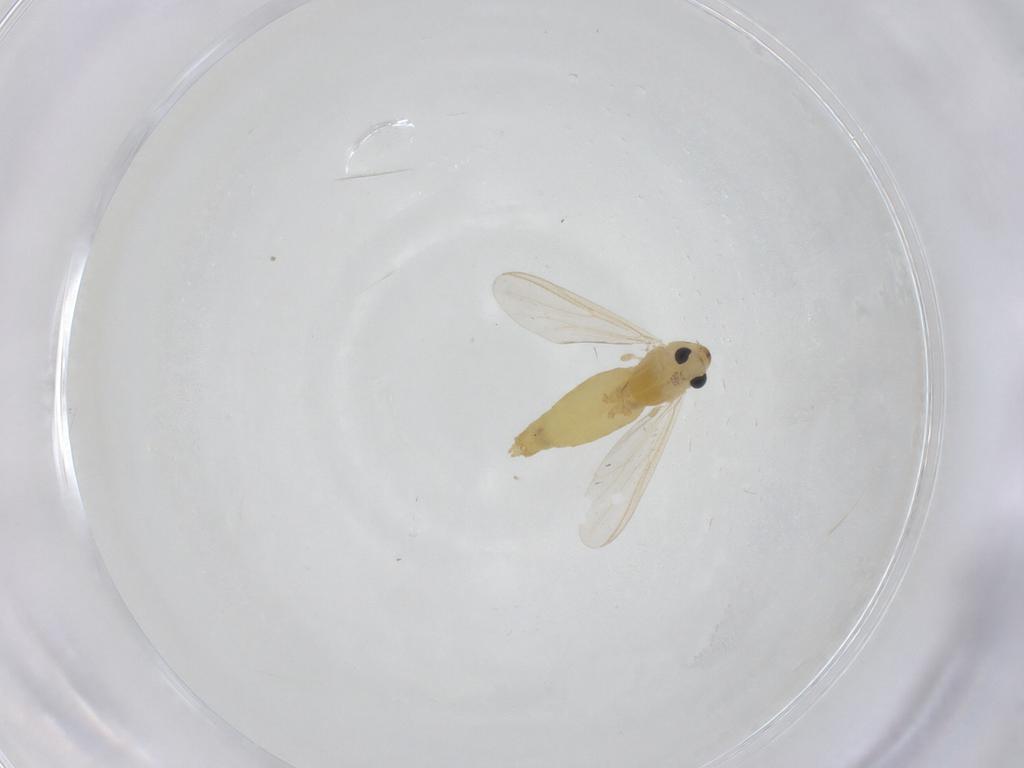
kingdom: Animalia
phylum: Arthropoda
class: Insecta
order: Diptera
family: Chironomidae
